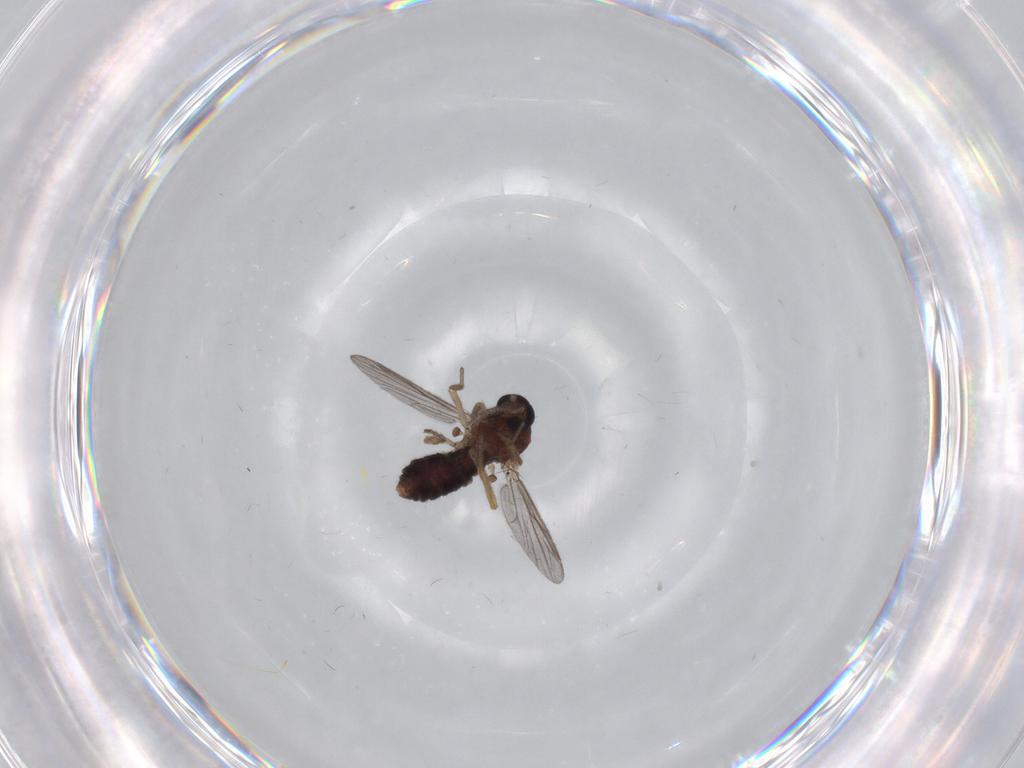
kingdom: Animalia
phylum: Arthropoda
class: Insecta
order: Diptera
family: Ceratopogonidae
